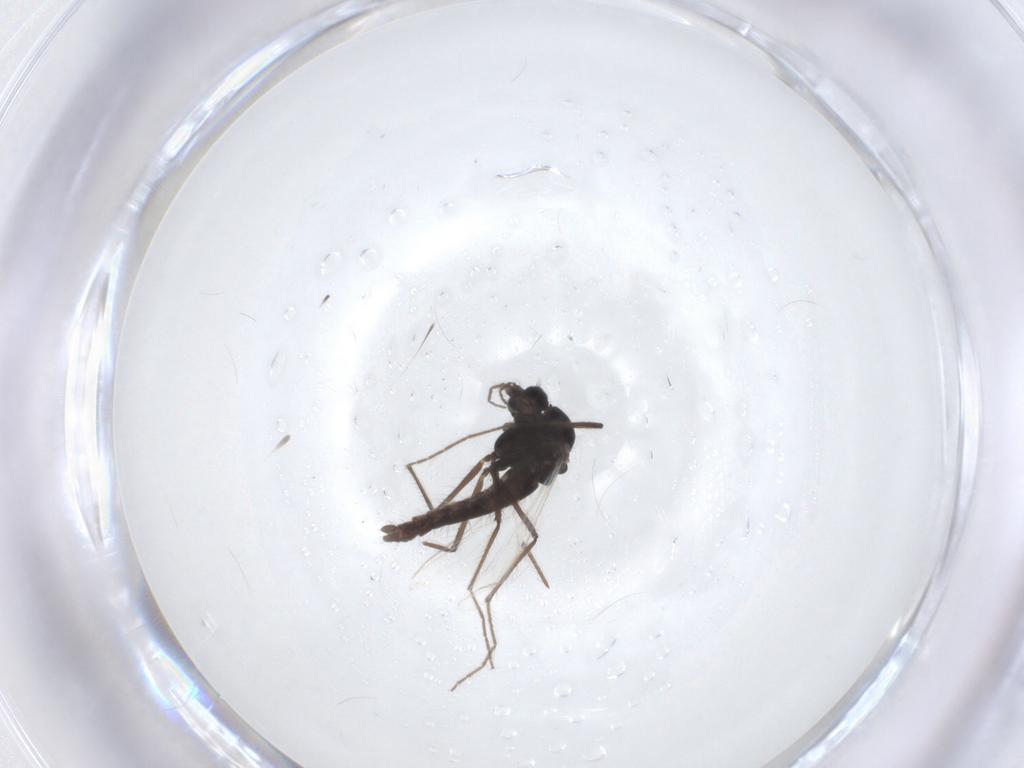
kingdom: Animalia
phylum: Arthropoda
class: Insecta
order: Diptera
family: Chironomidae
